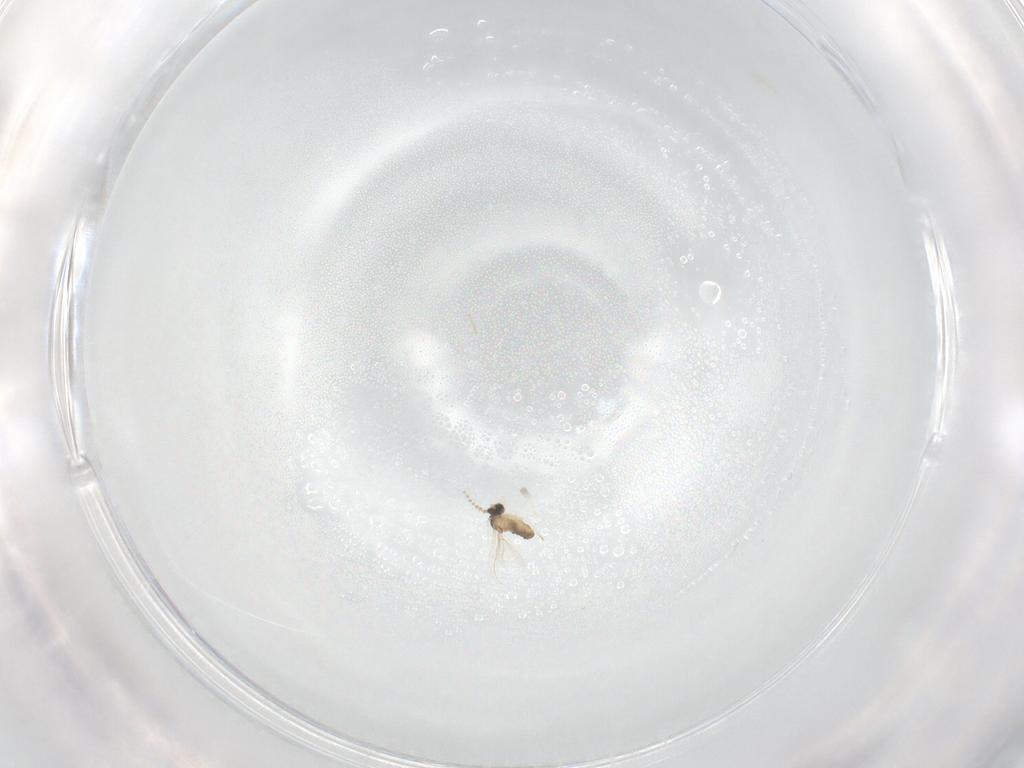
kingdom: Animalia
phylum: Arthropoda
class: Insecta
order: Diptera
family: Cecidomyiidae
